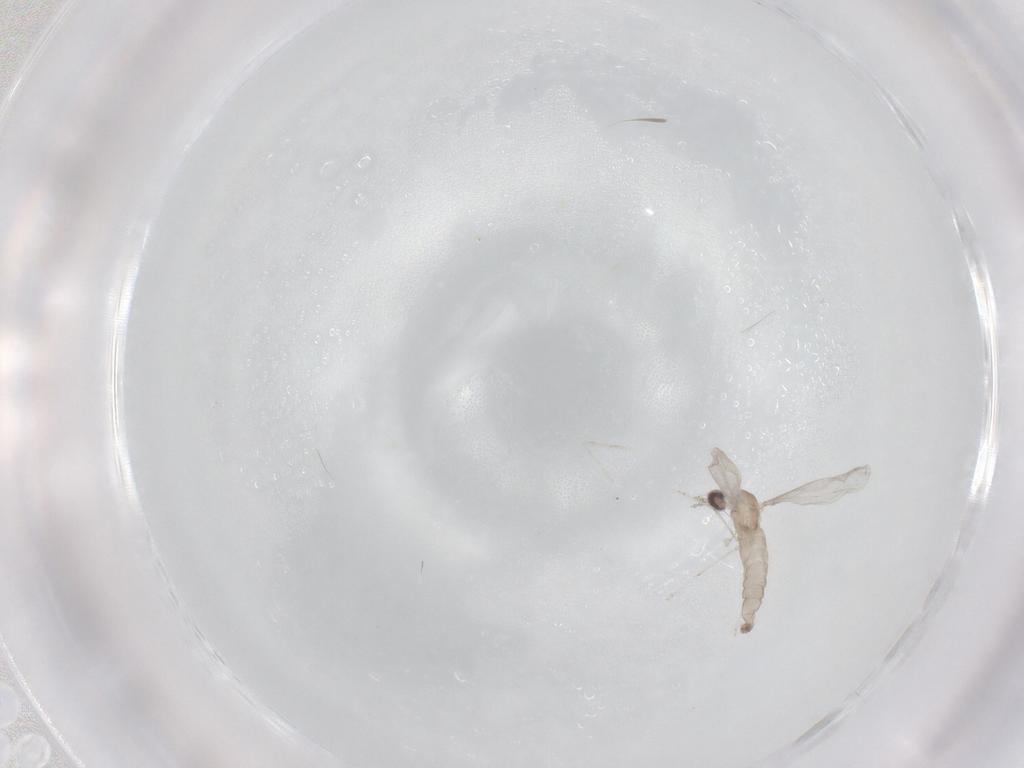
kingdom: Animalia
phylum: Arthropoda
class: Insecta
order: Diptera
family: Dolichopodidae
